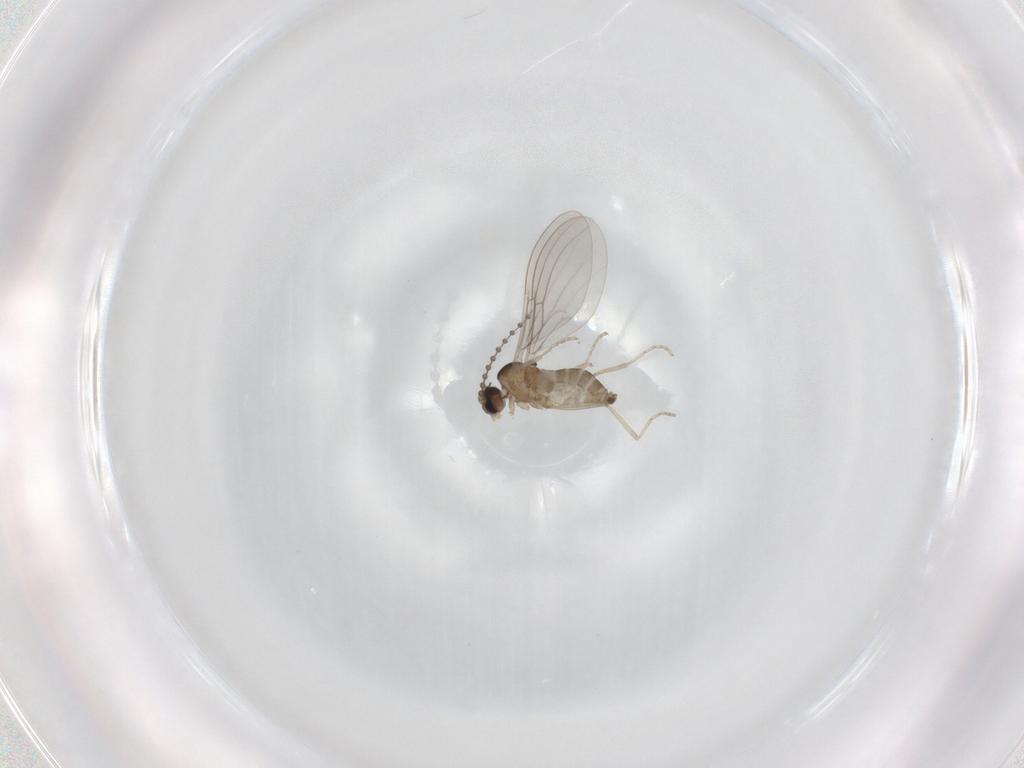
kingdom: Animalia
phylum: Arthropoda
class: Insecta
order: Diptera
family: Phoridae
